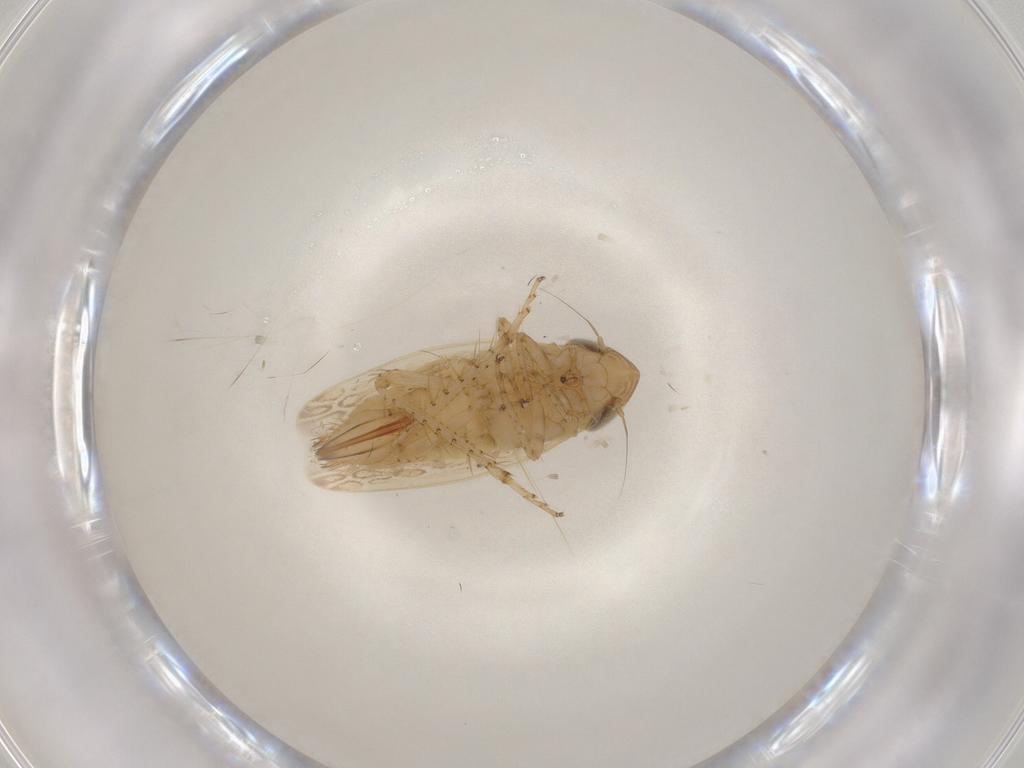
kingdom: Animalia
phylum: Arthropoda
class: Insecta
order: Hemiptera
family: Cicadellidae
